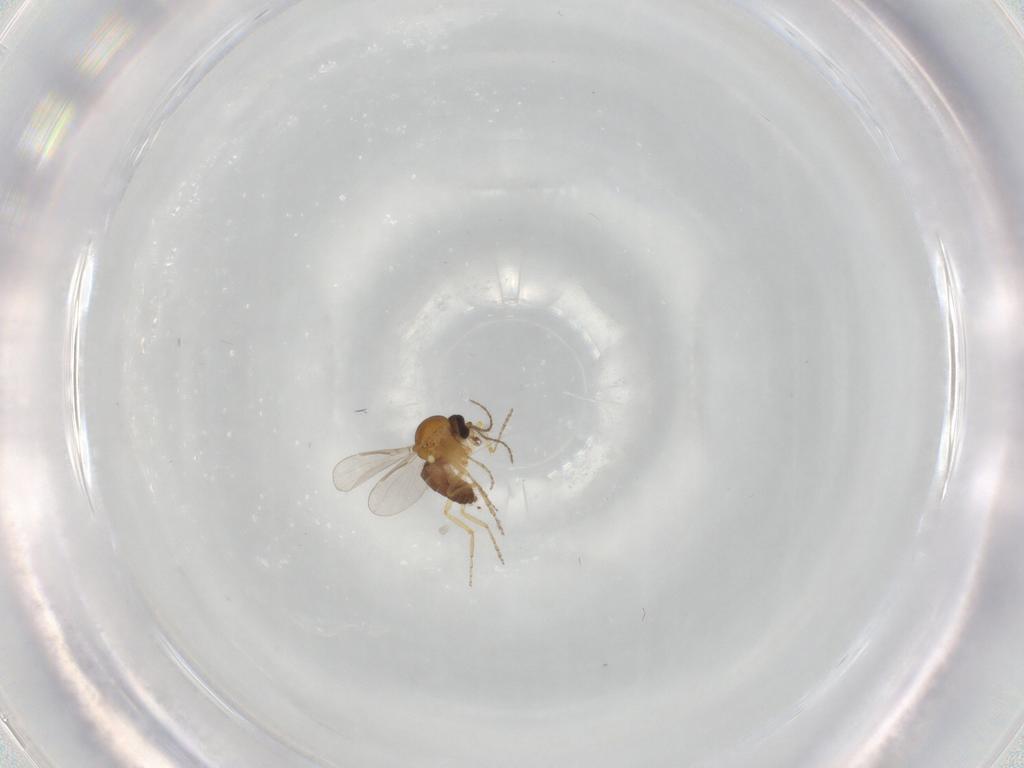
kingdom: Animalia
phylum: Arthropoda
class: Insecta
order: Diptera
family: Ceratopogonidae
